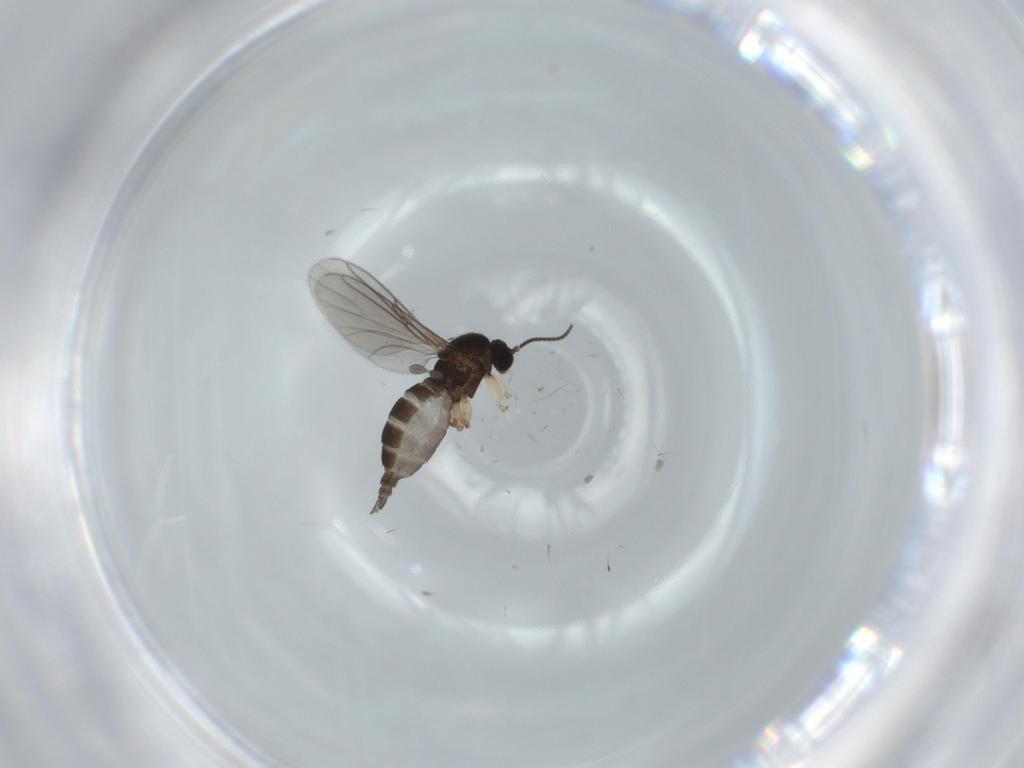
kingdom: Animalia
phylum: Arthropoda
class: Insecta
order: Diptera
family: Sciaridae
